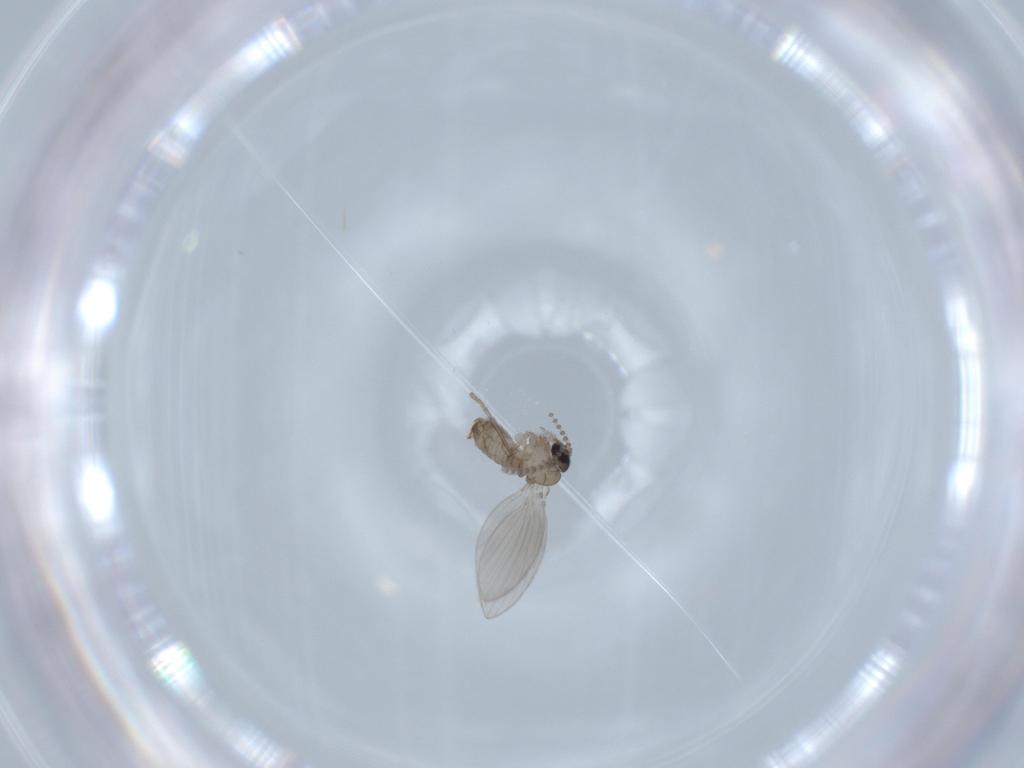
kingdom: Animalia
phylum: Arthropoda
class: Insecta
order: Diptera
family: Psychodidae
